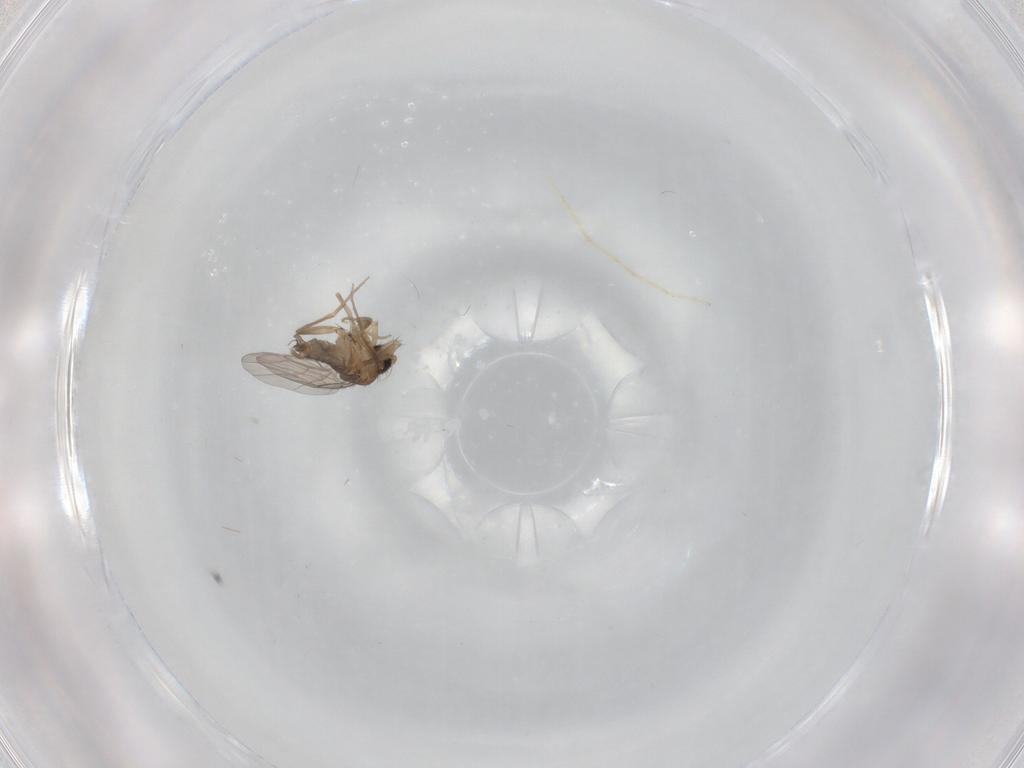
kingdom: Animalia
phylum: Arthropoda
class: Insecta
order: Diptera
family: Chironomidae
